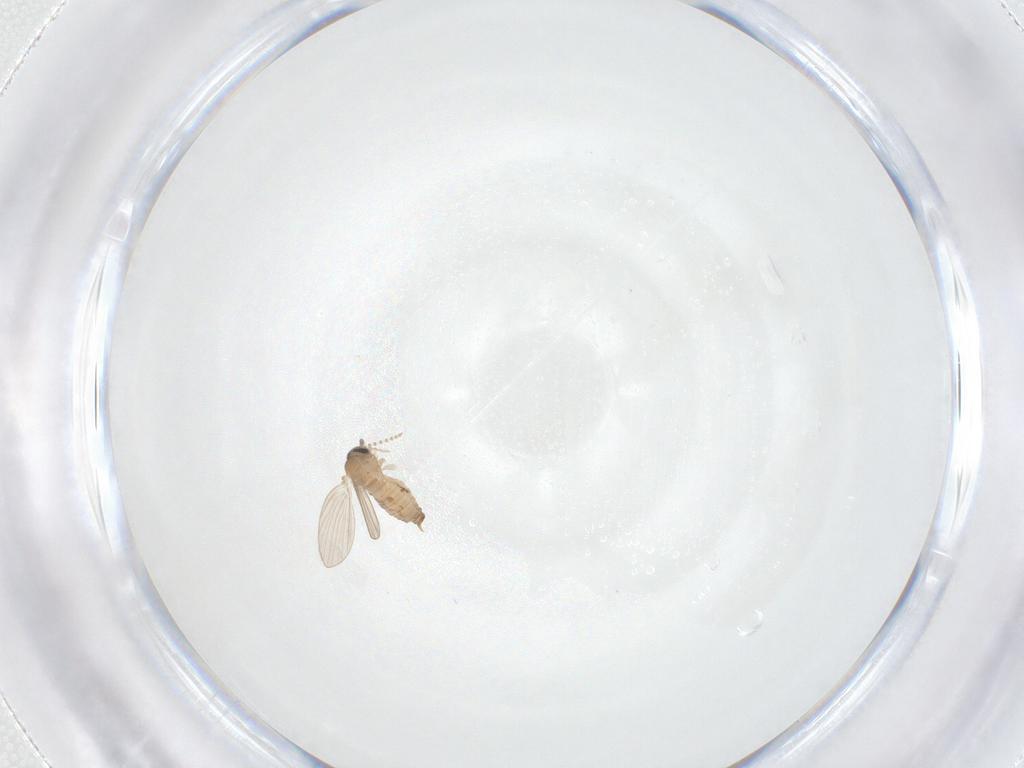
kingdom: Animalia
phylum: Arthropoda
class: Insecta
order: Diptera
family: Psychodidae
